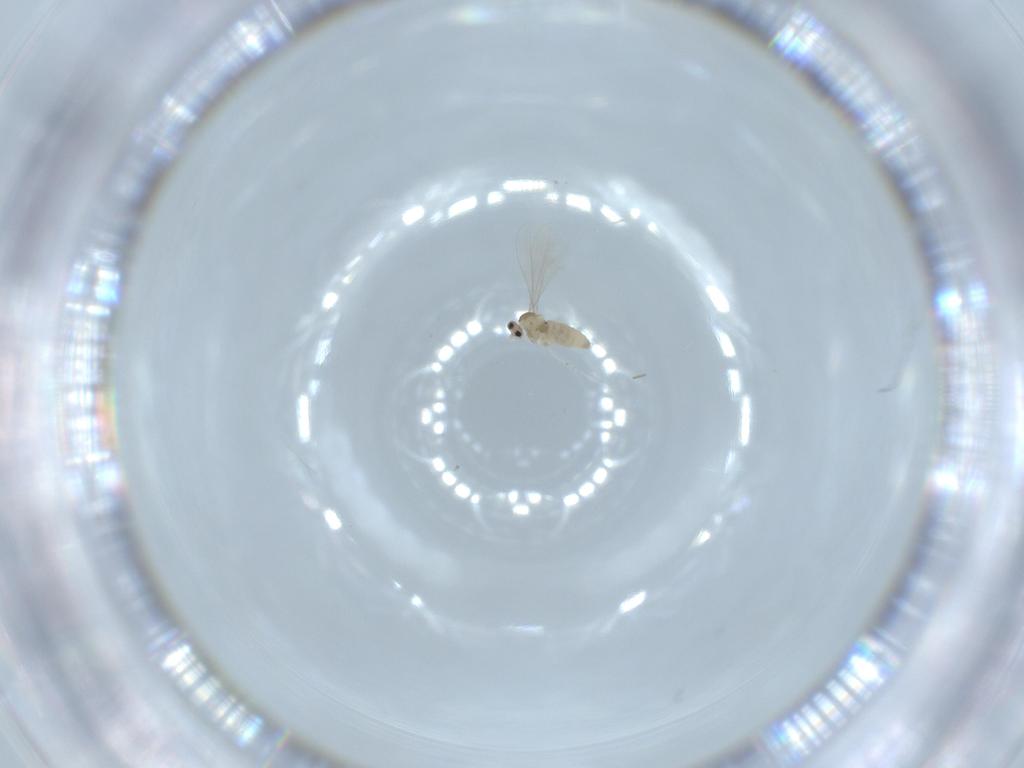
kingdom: Animalia
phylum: Arthropoda
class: Insecta
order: Diptera
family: Cecidomyiidae
